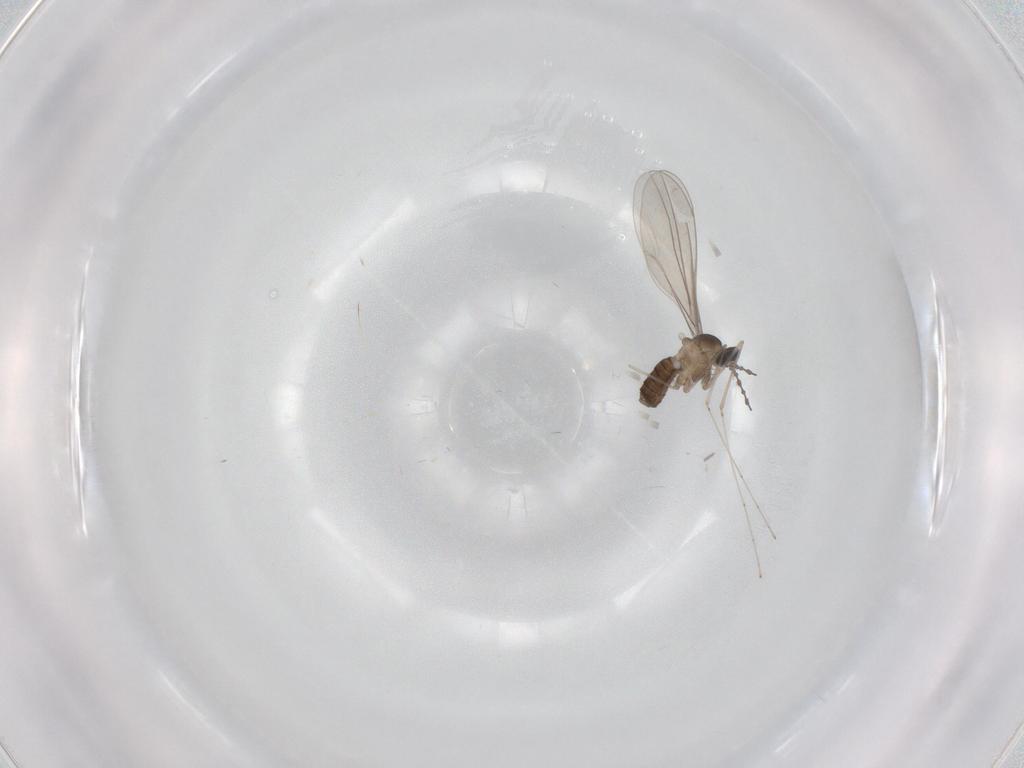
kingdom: Animalia
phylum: Arthropoda
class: Insecta
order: Diptera
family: Cecidomyiidae
